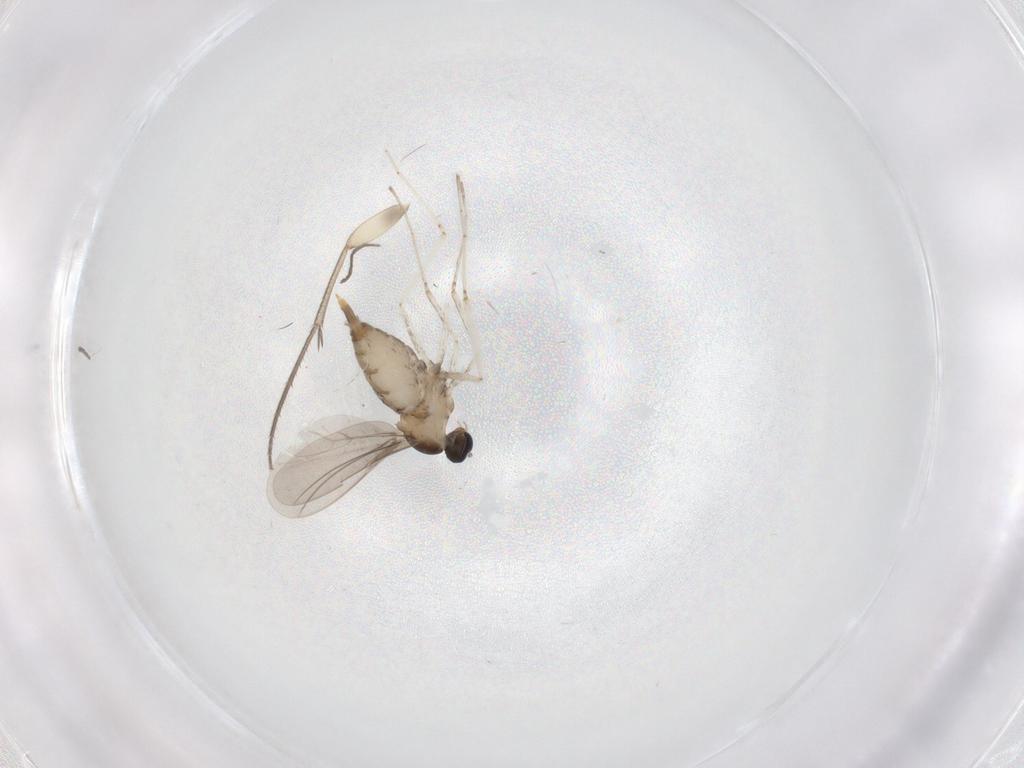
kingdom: Animalia
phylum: Arthropoda
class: Insecta
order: Diptera
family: Cecidomyiidae
